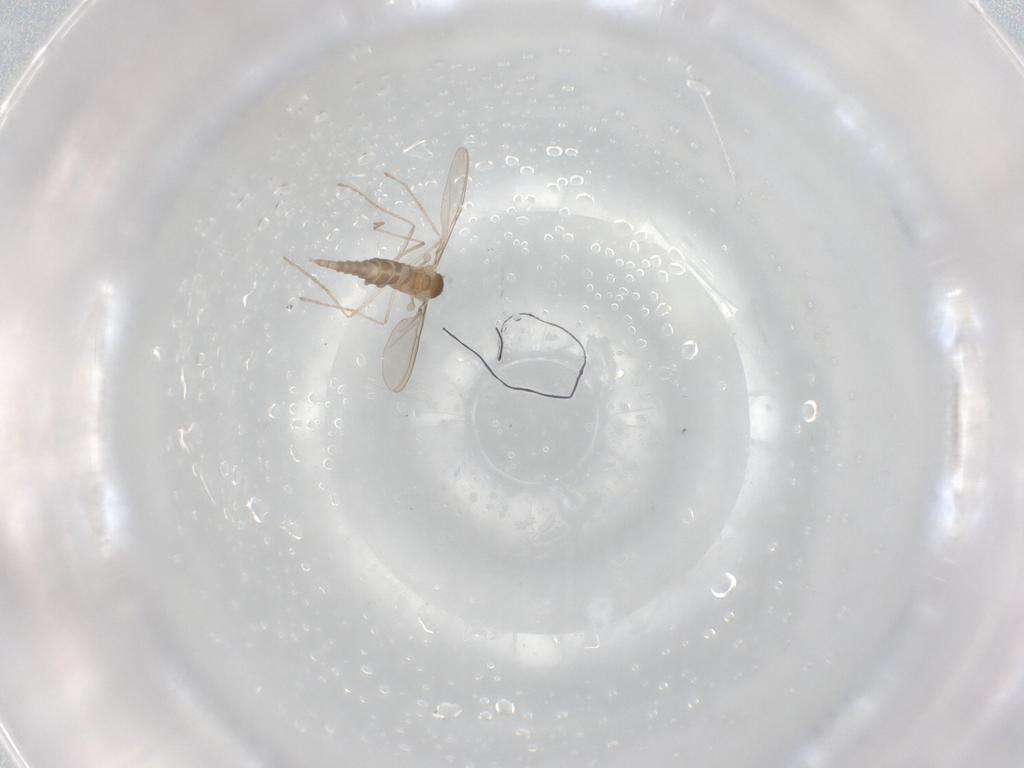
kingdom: Animalia
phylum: Arthropoda
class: Insecta
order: Diptera
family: Cecidomyiidae
